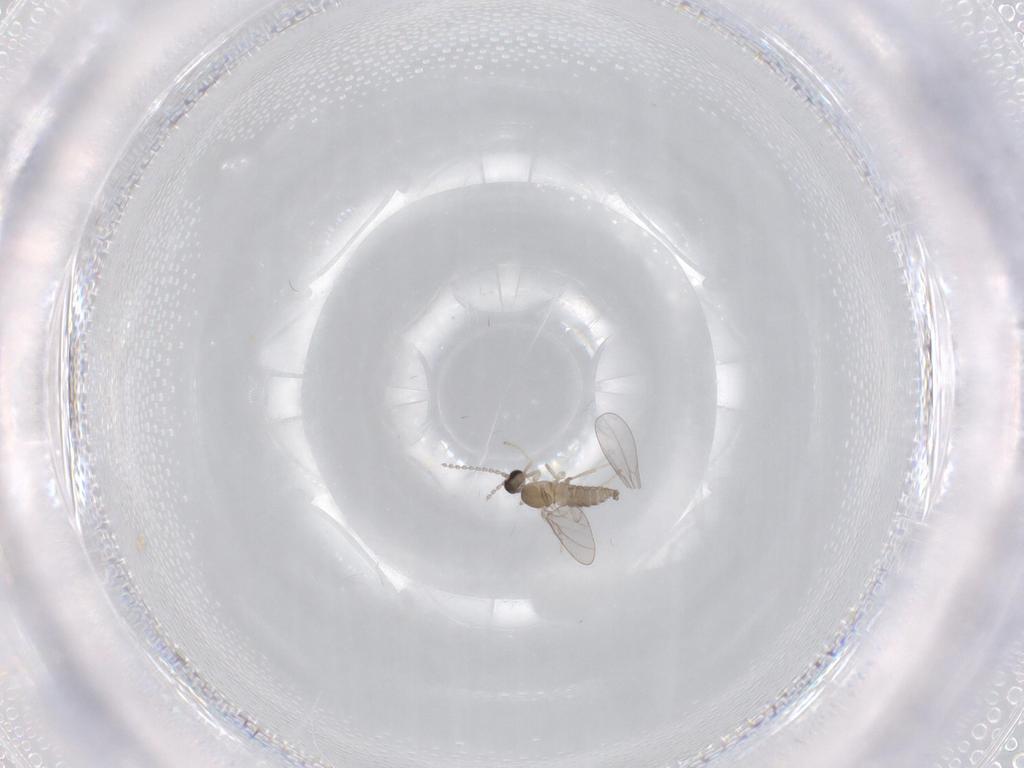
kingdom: Animalia
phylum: Arthropoda
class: Insecta
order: Diptera
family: Cecidomyiidae
